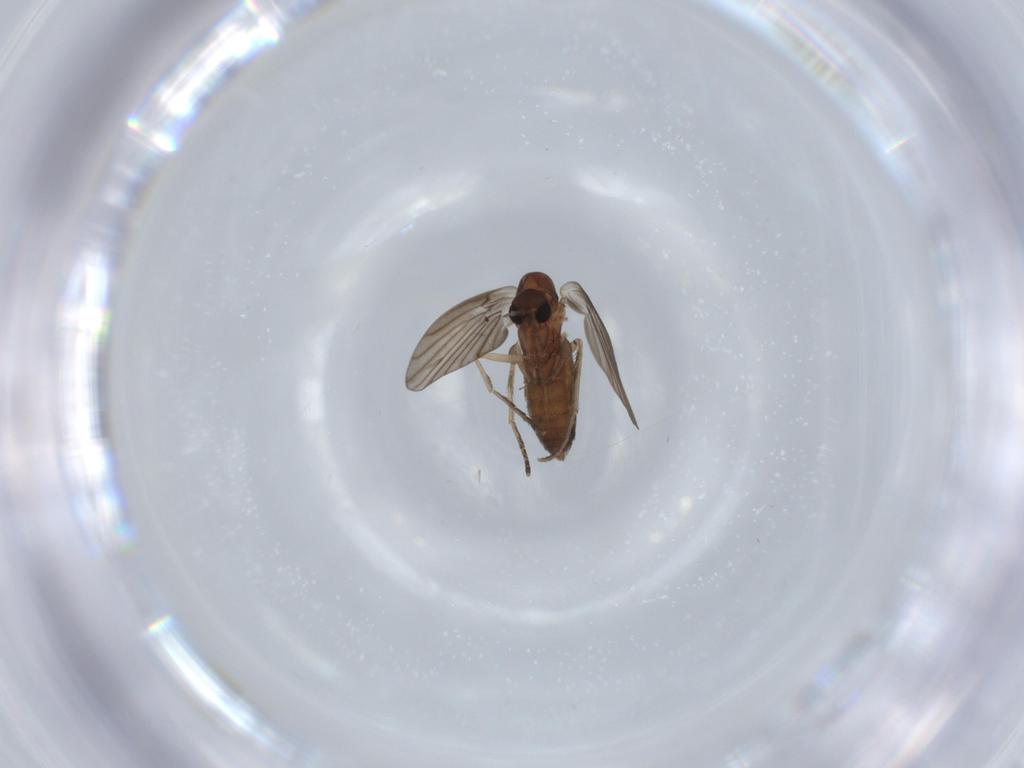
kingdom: Animalia
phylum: Arthropoda
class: Insecta
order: Diptera
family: Psychodidae
